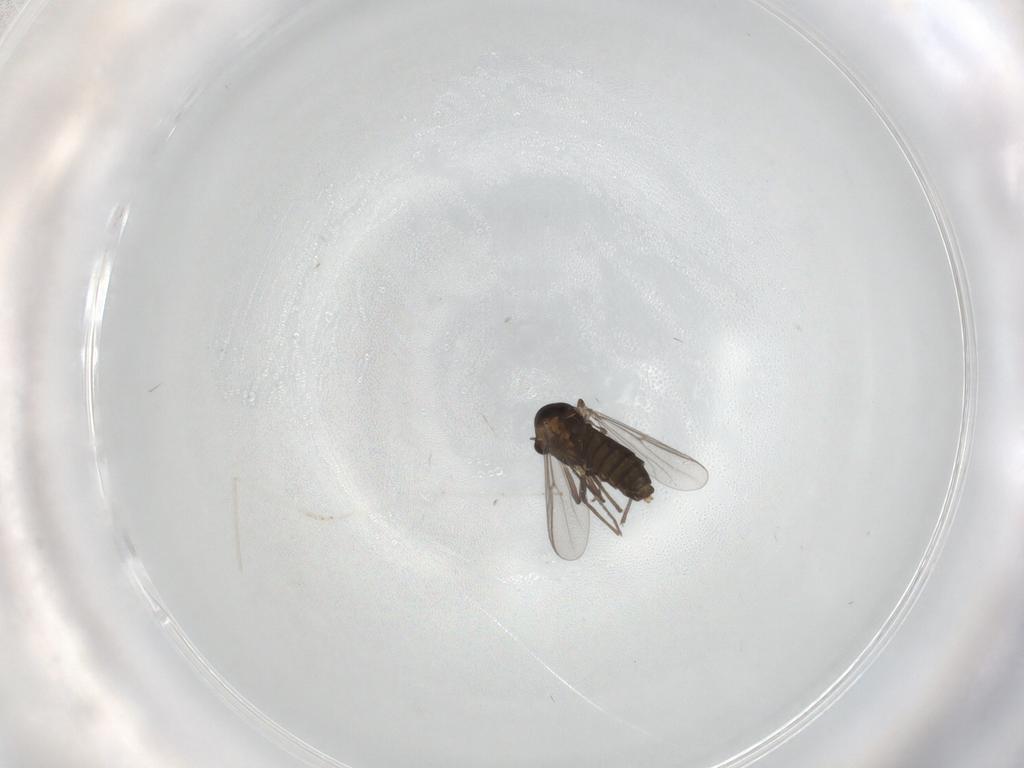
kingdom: Animalia
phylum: Arthropoda
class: Insecta
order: Diptera
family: Chironomidae
